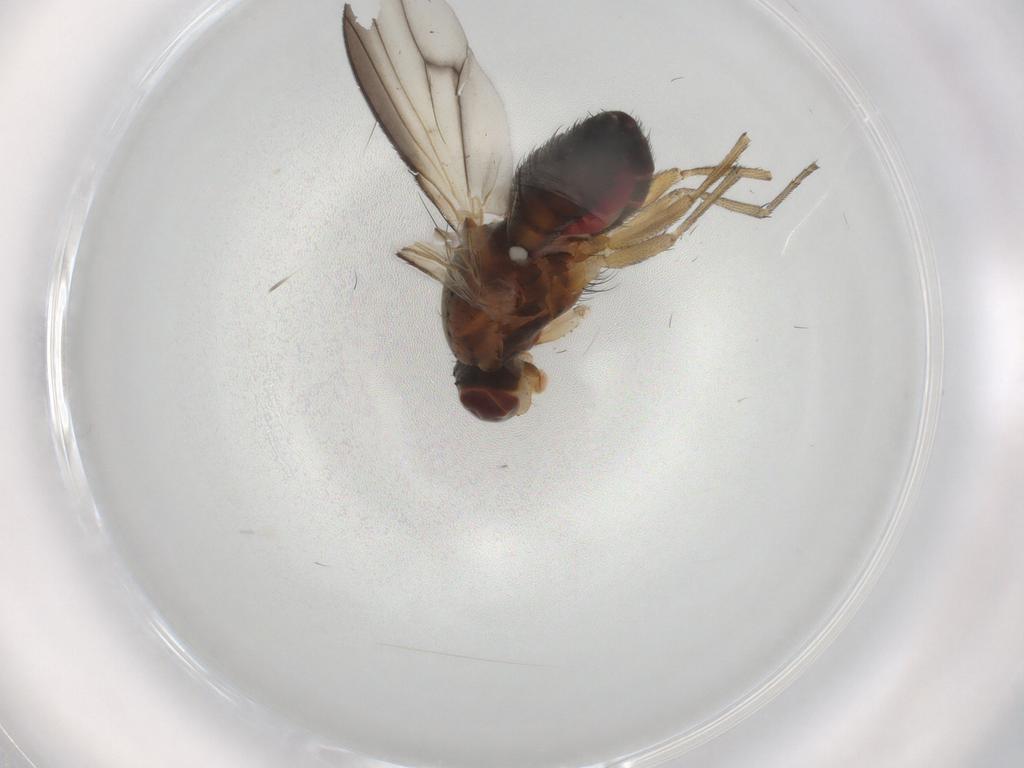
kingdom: Animalia
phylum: Arthropoda
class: Insecta
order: Diptera
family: Heleomyzidae
